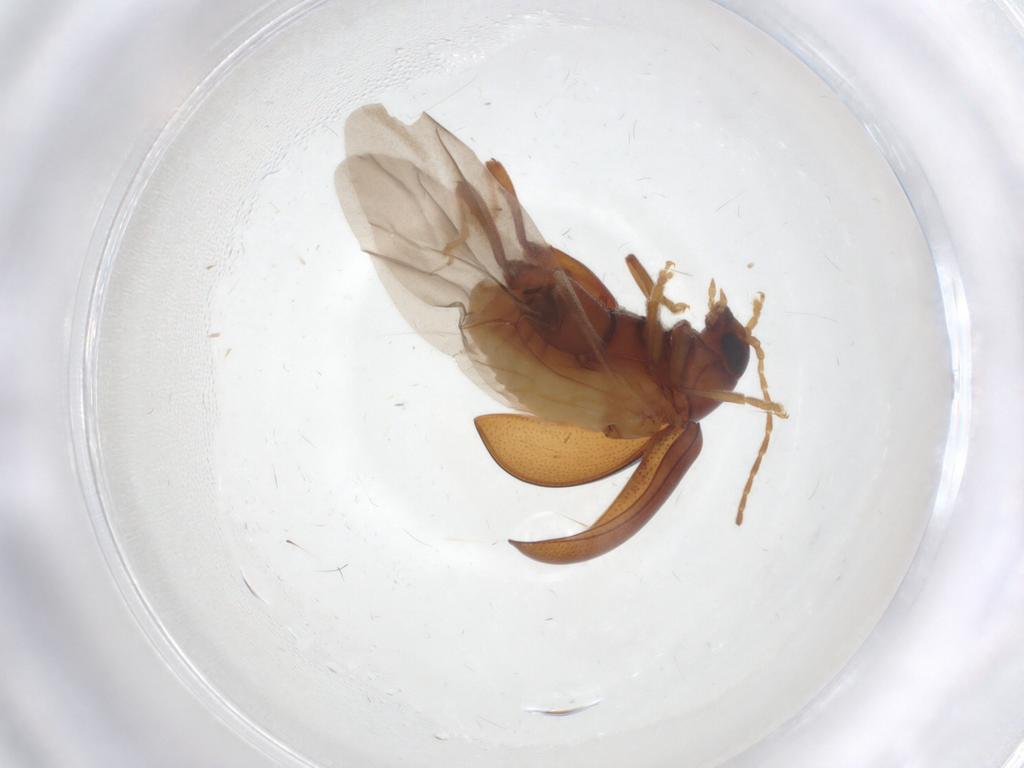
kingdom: Animalia
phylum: Arthropoda
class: Insecta
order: Coleoptera
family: Chrysomelidae
